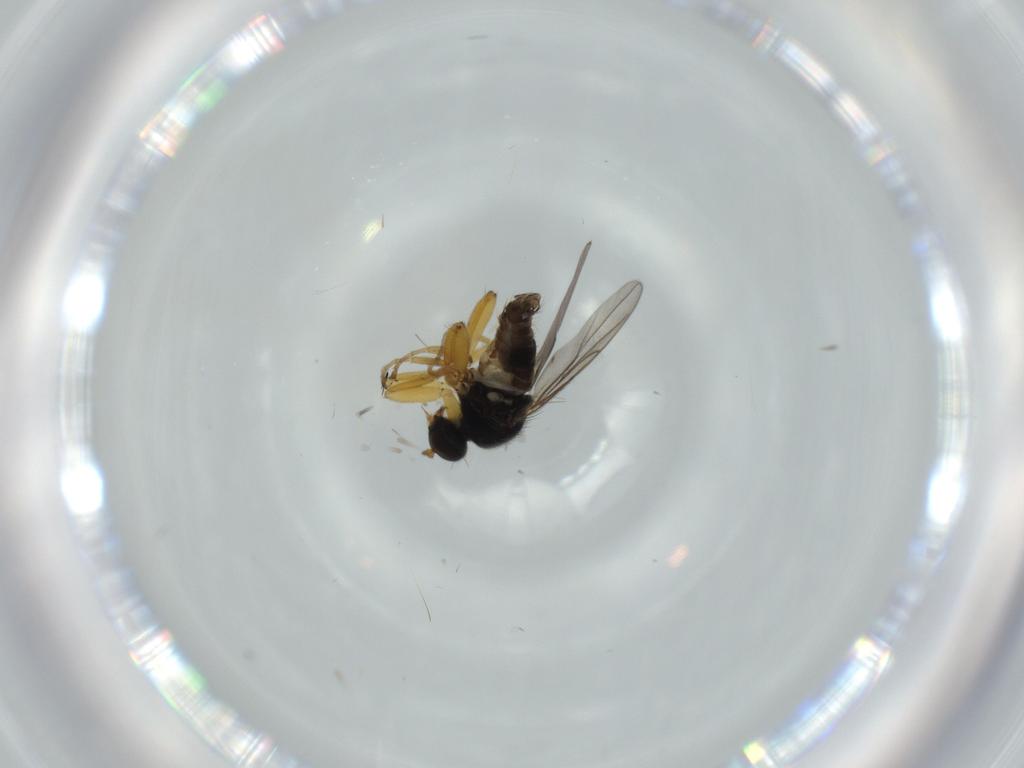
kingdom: Animalia
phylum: Arthropoda
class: Insecta
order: Diptera
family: Hybotidae
